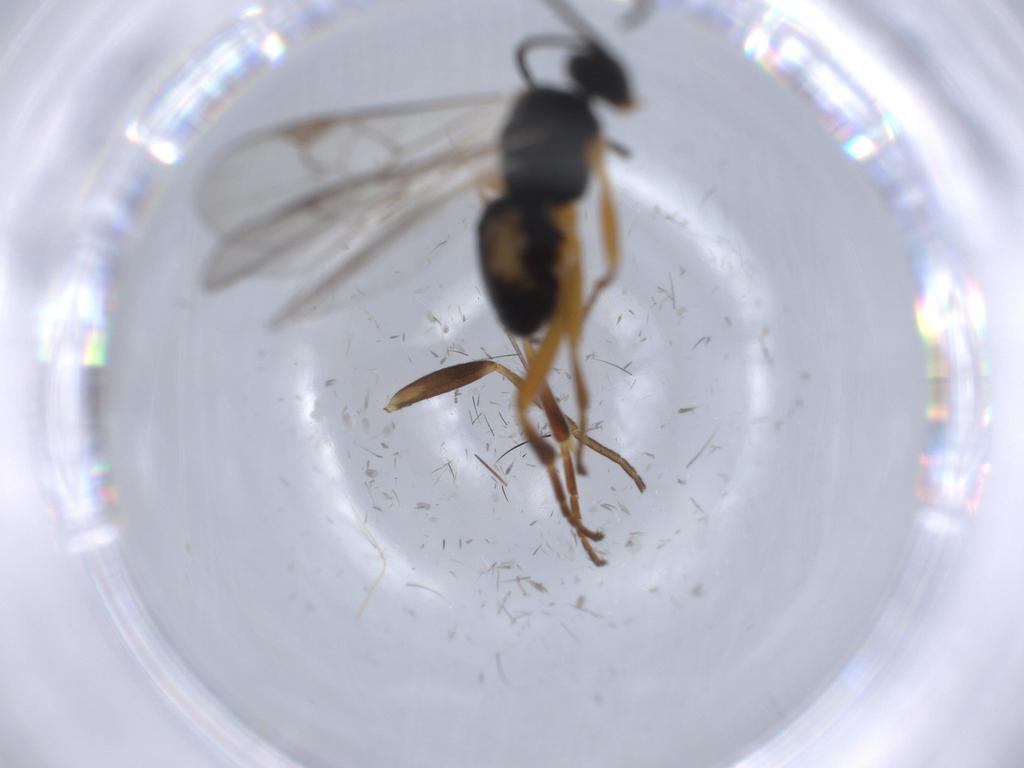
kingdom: Animalia
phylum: Arthropoda
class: Insecta
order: Hymenoptera
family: Braconidae
